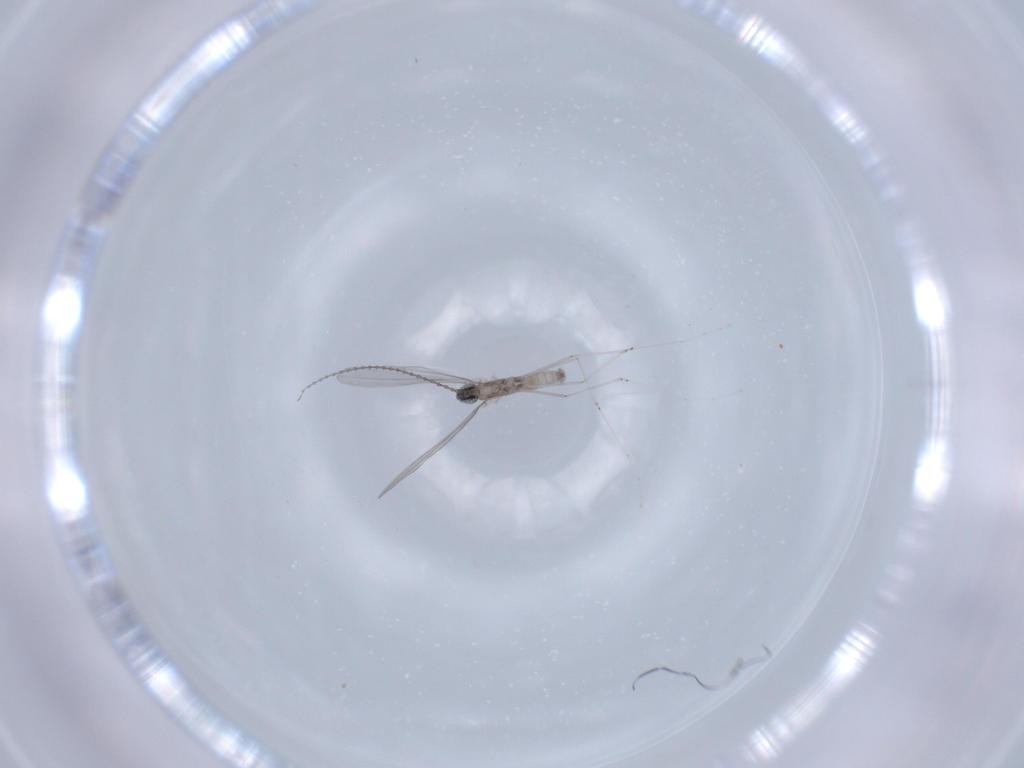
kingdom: Animalia
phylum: Arthropoda
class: Insecta
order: Diptera
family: Cecidomyiidae
